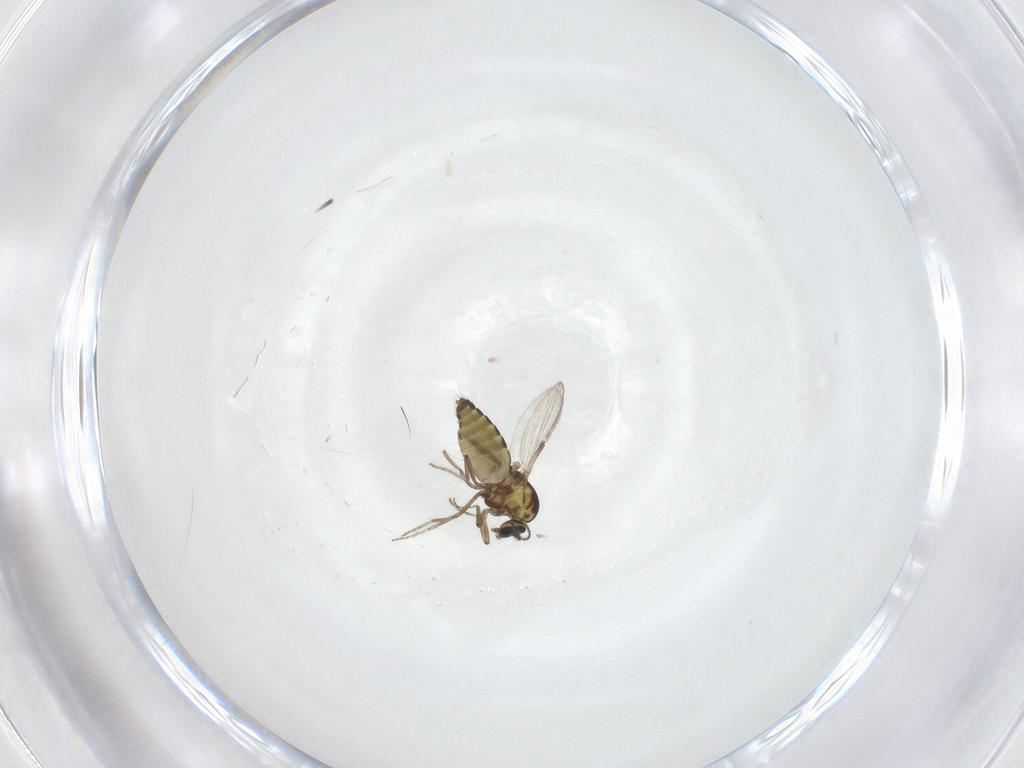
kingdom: Animalia
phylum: Arthropoda
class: Insecta
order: Diptera
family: Ceratopogonidae
